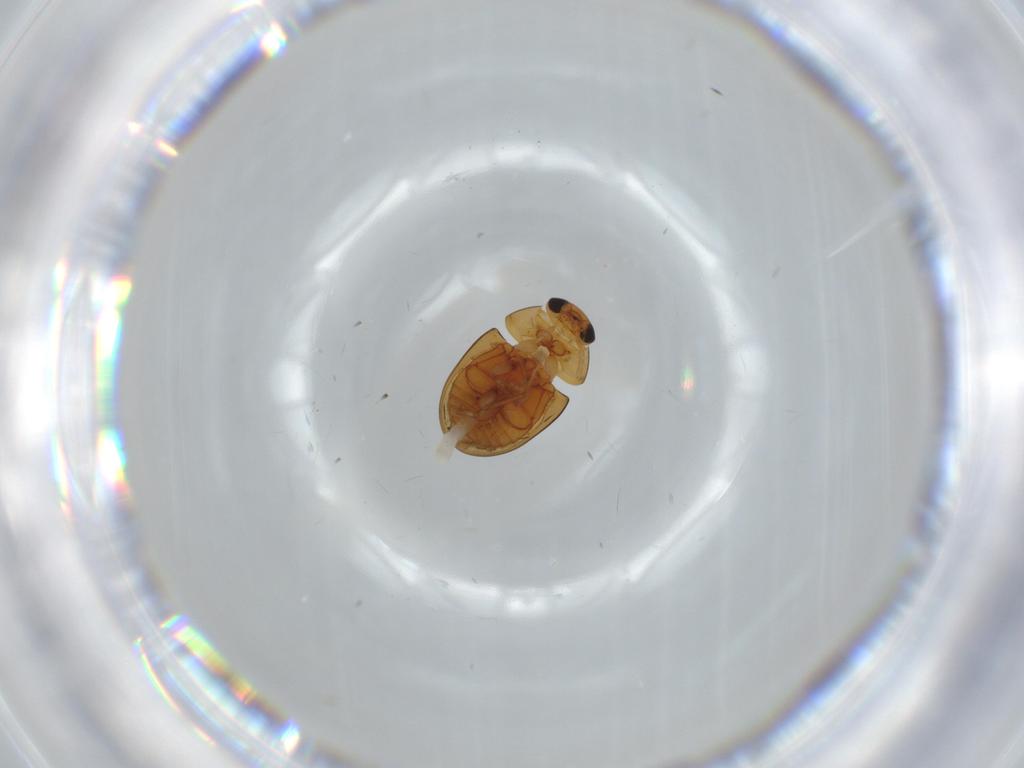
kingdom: Animalia
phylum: Arthropoda
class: Insecta
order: Coleoptera
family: Phalacridae
